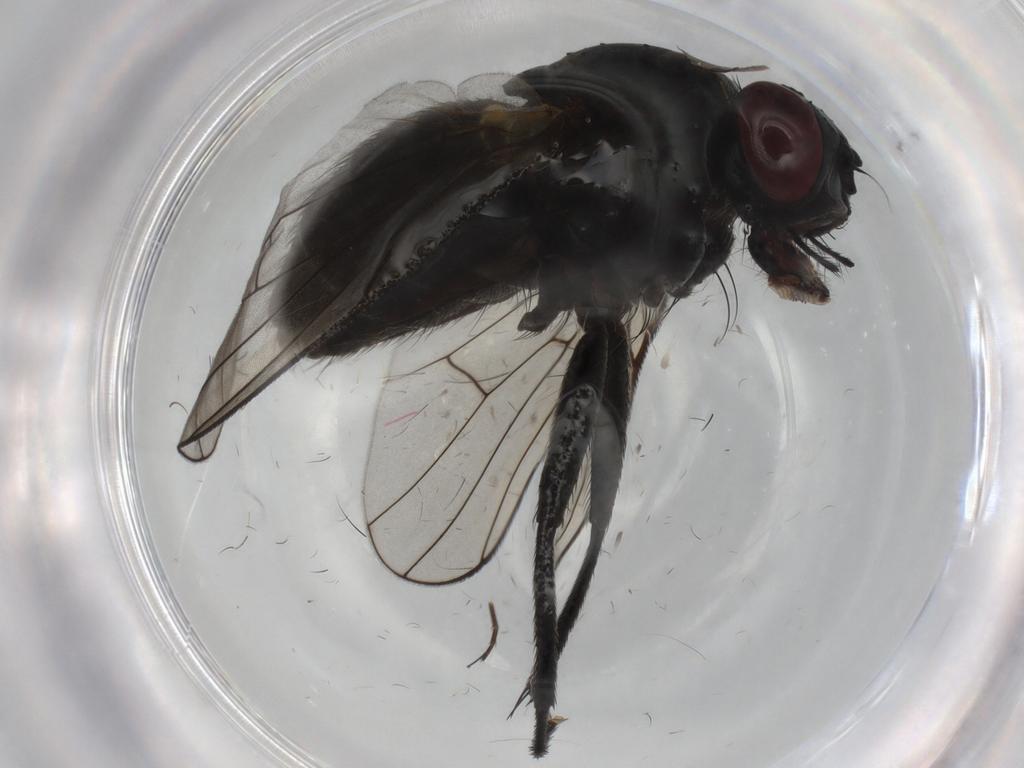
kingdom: Animalia
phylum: Arthropoda
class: Insecta
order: Diptera
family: Muscidae
